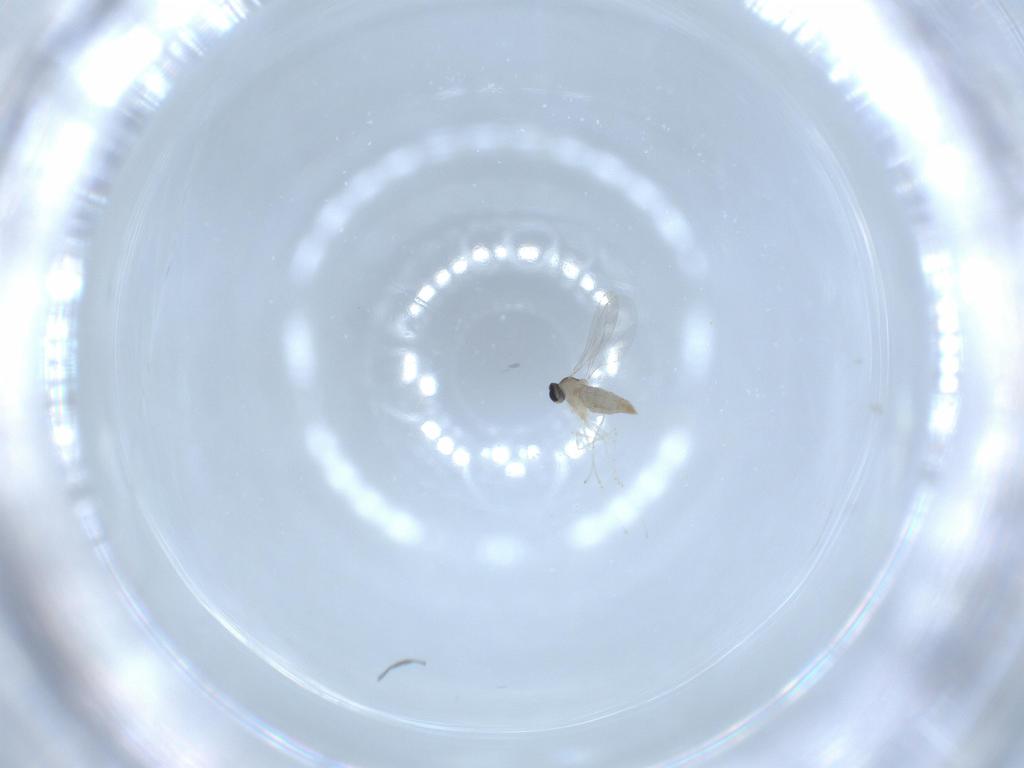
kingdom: Animalia
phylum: Arthropoda
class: Insecta
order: Diptera
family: Cecidomyiidae
